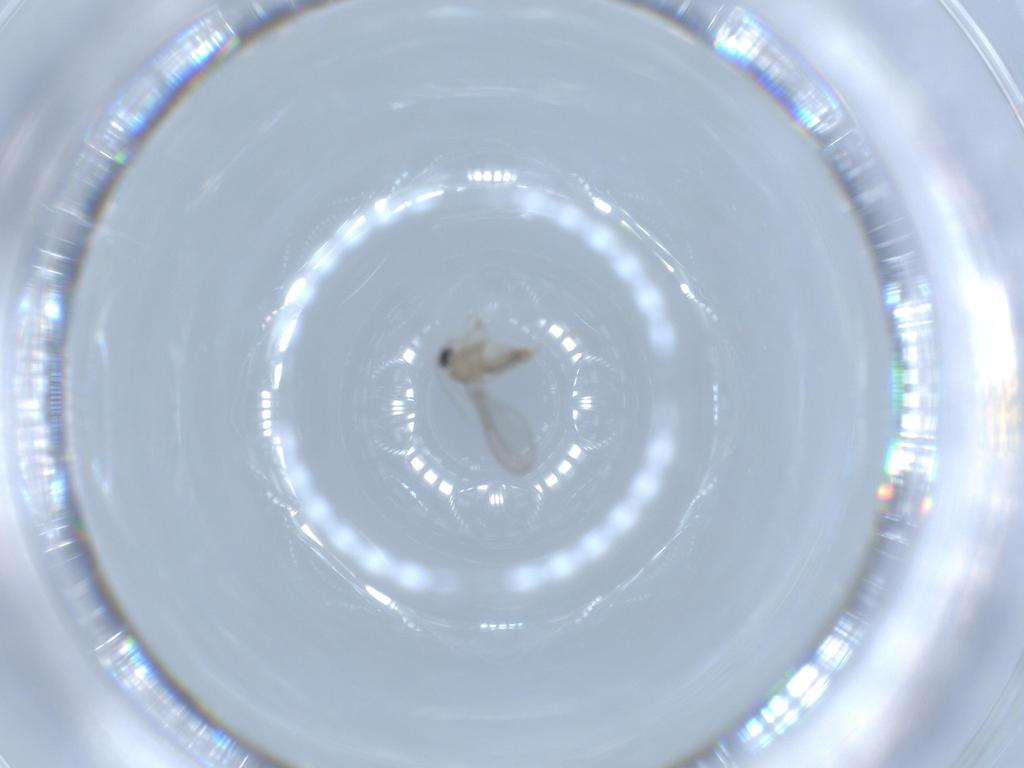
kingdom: Animalia
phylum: Arthropoda
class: Insecta
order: Diptera
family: Cecidomyiidae
